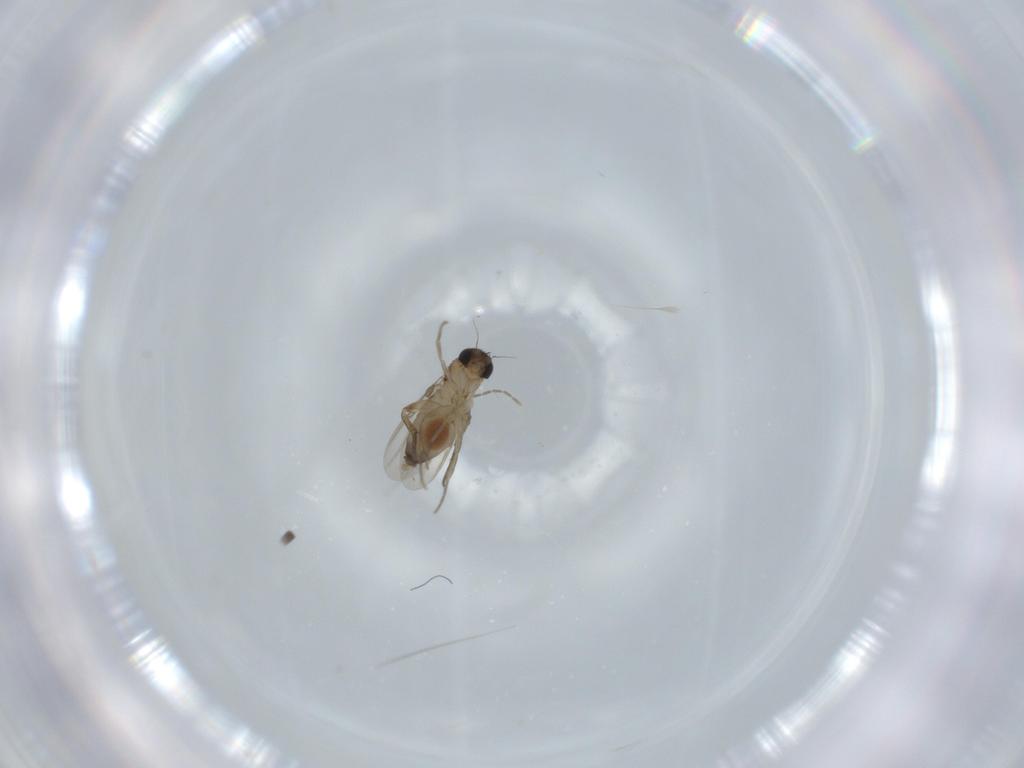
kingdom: Animalia
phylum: Arthropoda
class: Insecta
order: Diptera
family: Phoridae
